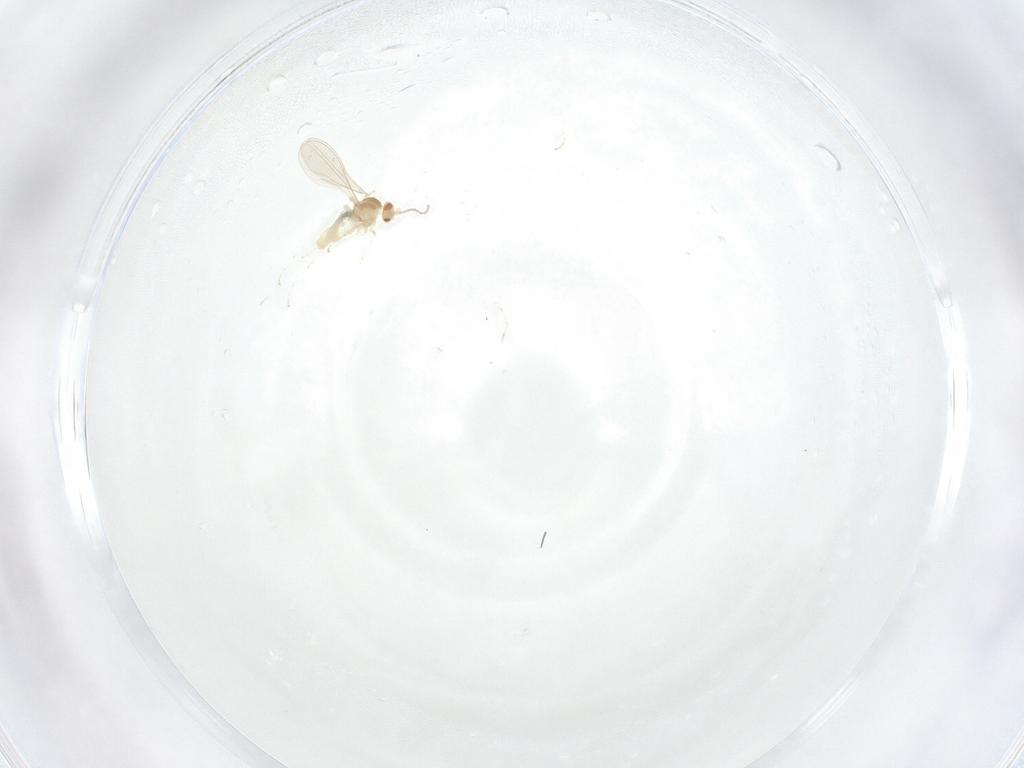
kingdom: Animalia
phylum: Arthropoda
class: Insecta
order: Diptera
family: Cecidomyiidae
